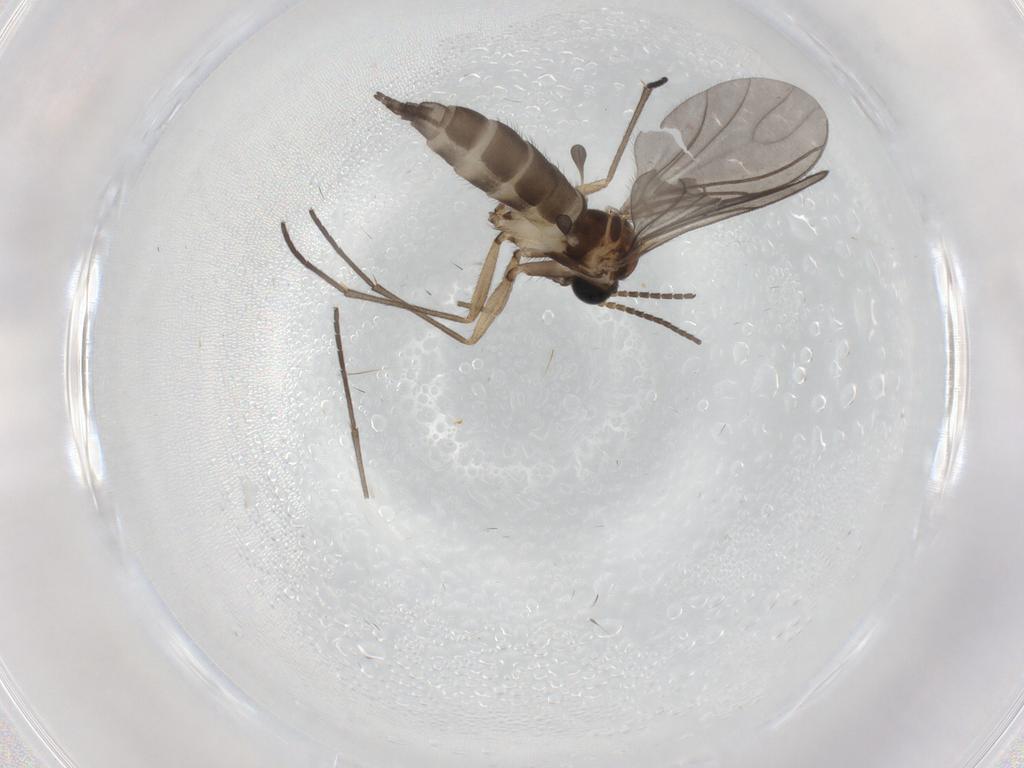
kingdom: Animalia
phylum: Arthropoda
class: Insecta
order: Diptera
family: Sciaridae
